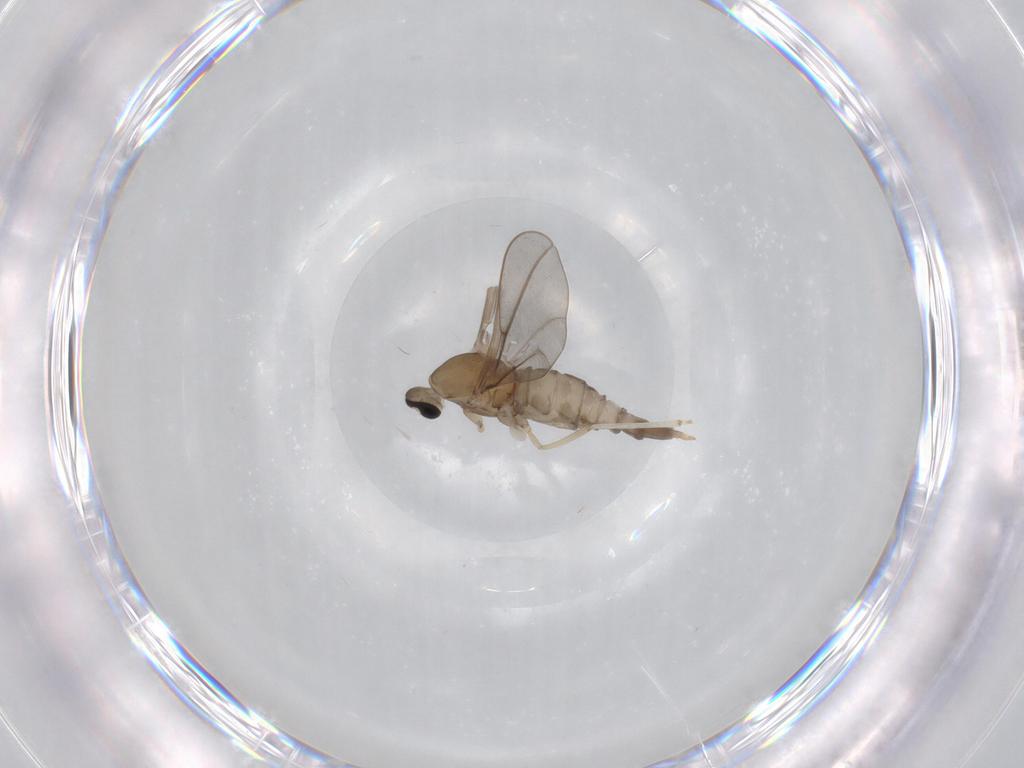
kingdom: Animalia
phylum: Arthropoda
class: Insecta
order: Diptera
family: Cecidomyiidae
